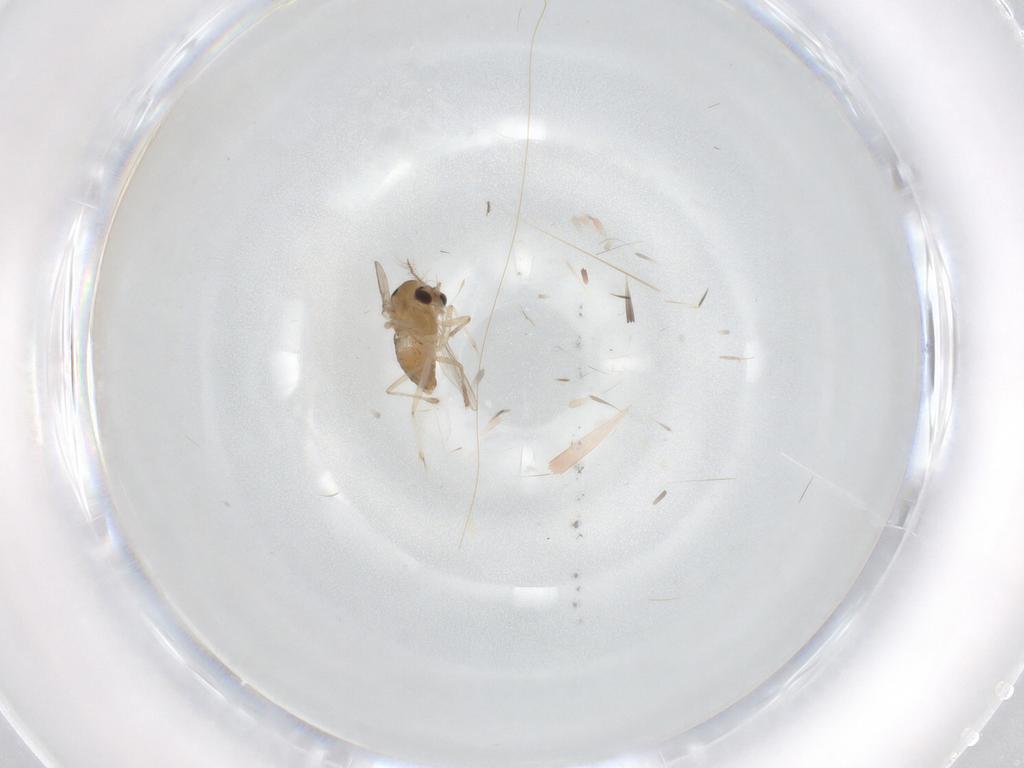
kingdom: Animalia
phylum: Arthropoda
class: Insecta
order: Diptera
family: Chironomidae
